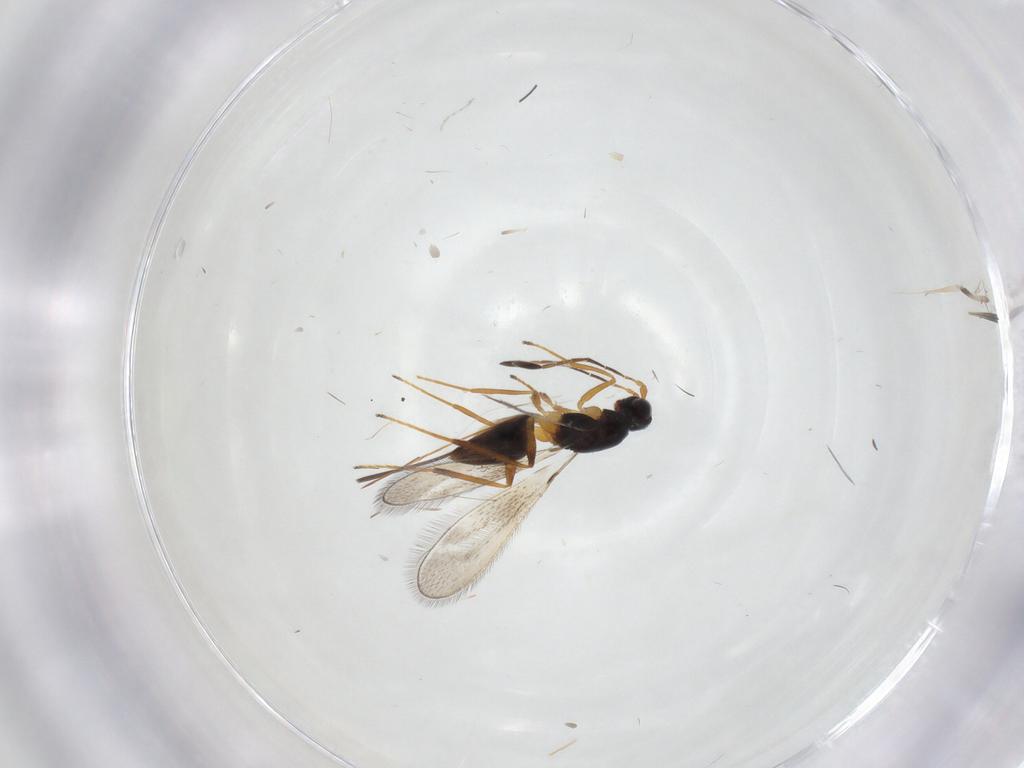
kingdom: Animalia
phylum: Arthropoda
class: Insecta
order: Hymenoptera
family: Mymaridae
